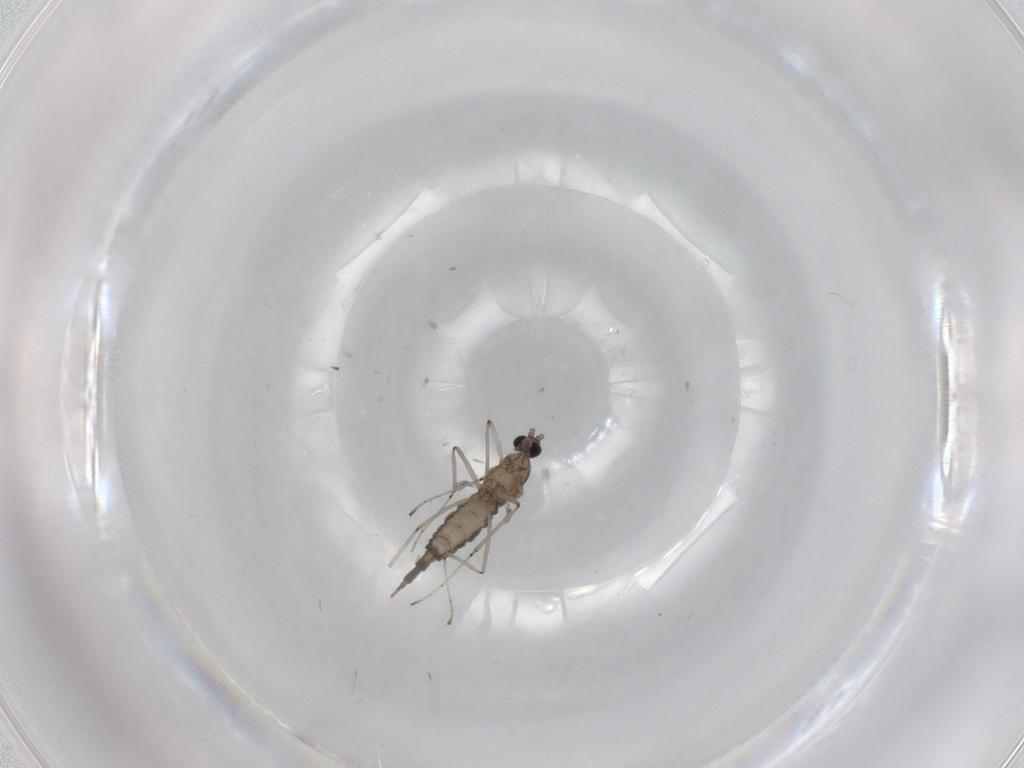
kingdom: Animalia
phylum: Arthropoda
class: Insecta
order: Diptera
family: Cecidomyiidae
